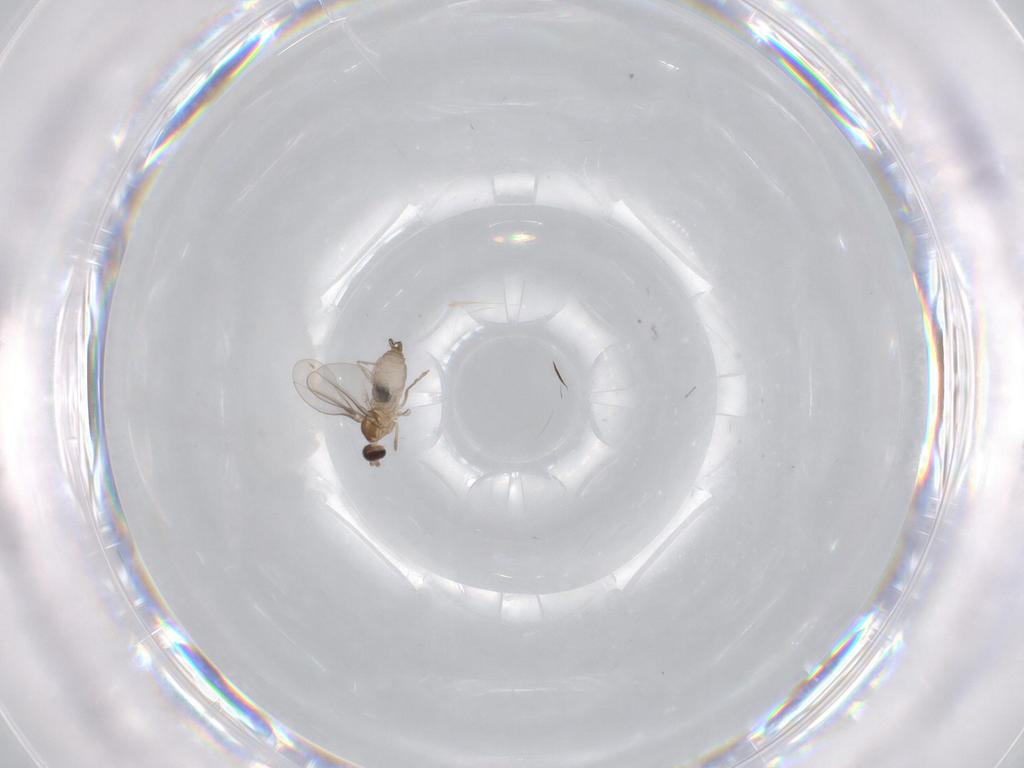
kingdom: Animalia
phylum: Arthropoda
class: Insecta
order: Diptera
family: Cecidomyiidae
